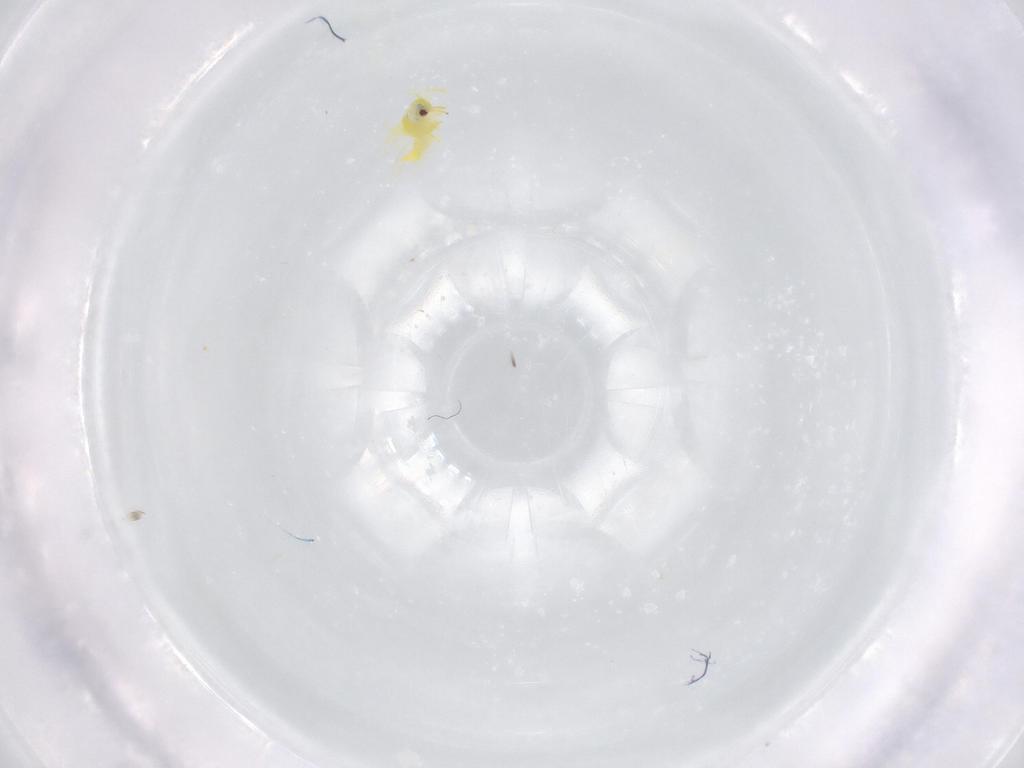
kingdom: Animalia
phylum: Arthropoda
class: Insecta
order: Hemiptera
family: Aleyrodidae
